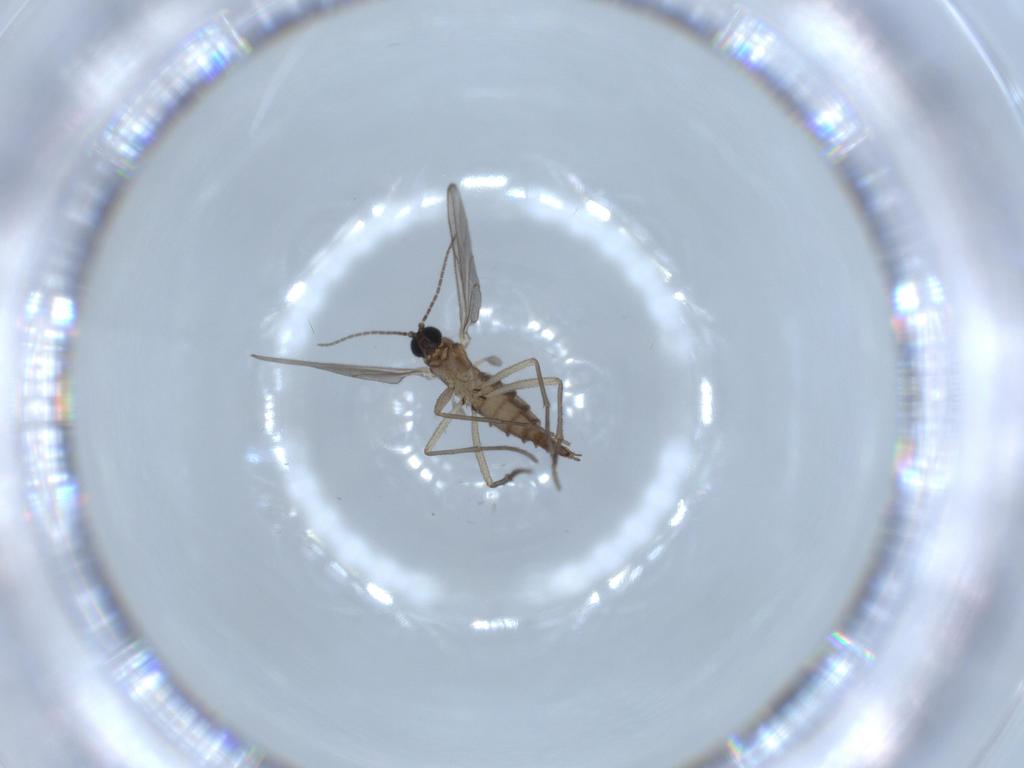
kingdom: Animalia
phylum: Arthropoda
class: Insecta
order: Diptera
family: Sciaridae
